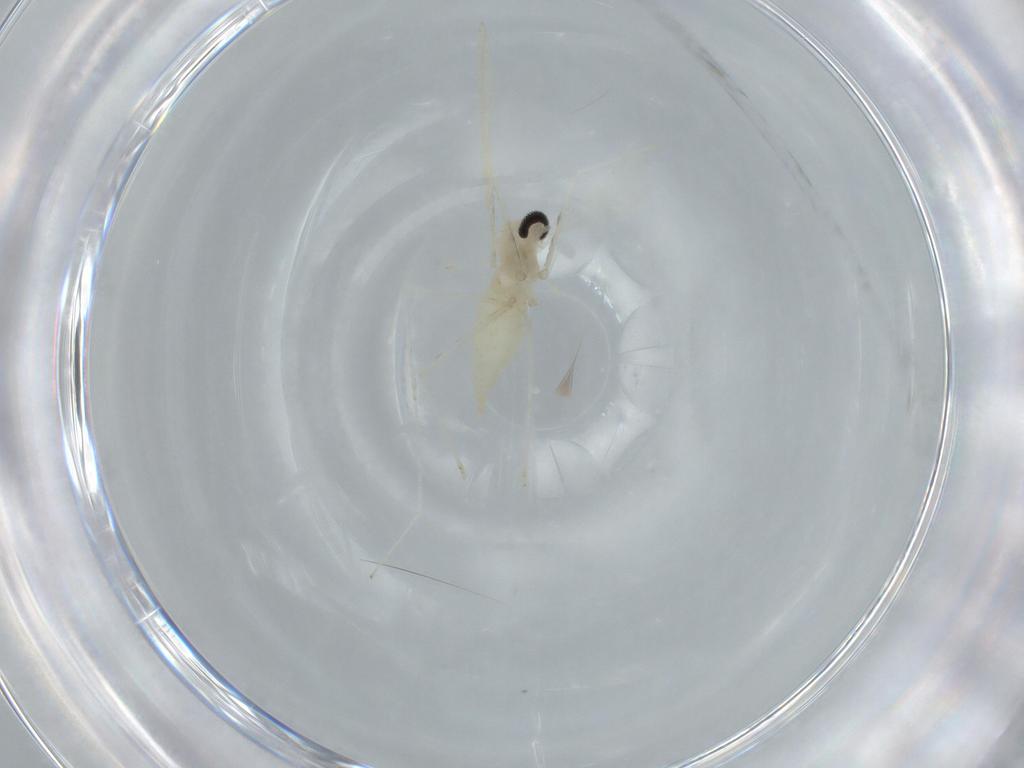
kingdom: Animalia
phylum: Arthropoda
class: Insecta
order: Diptera
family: Cecidomyiidae
